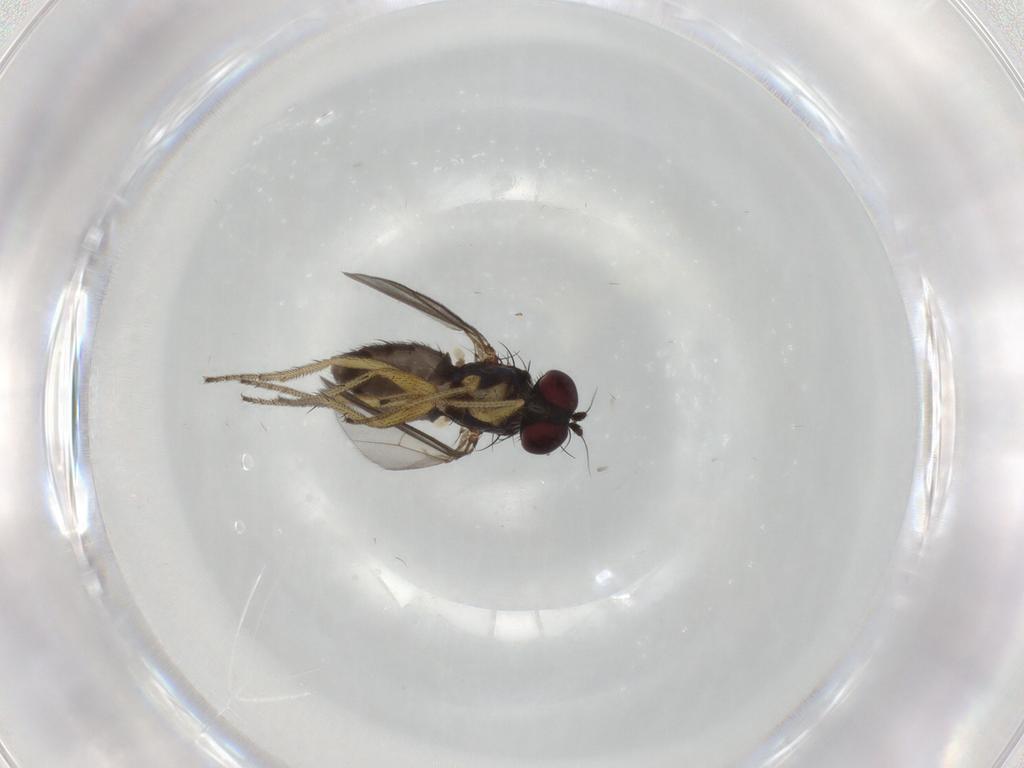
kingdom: Animalia
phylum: Arthropoda
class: Insecta
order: Diptera
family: Dolichopodidae
